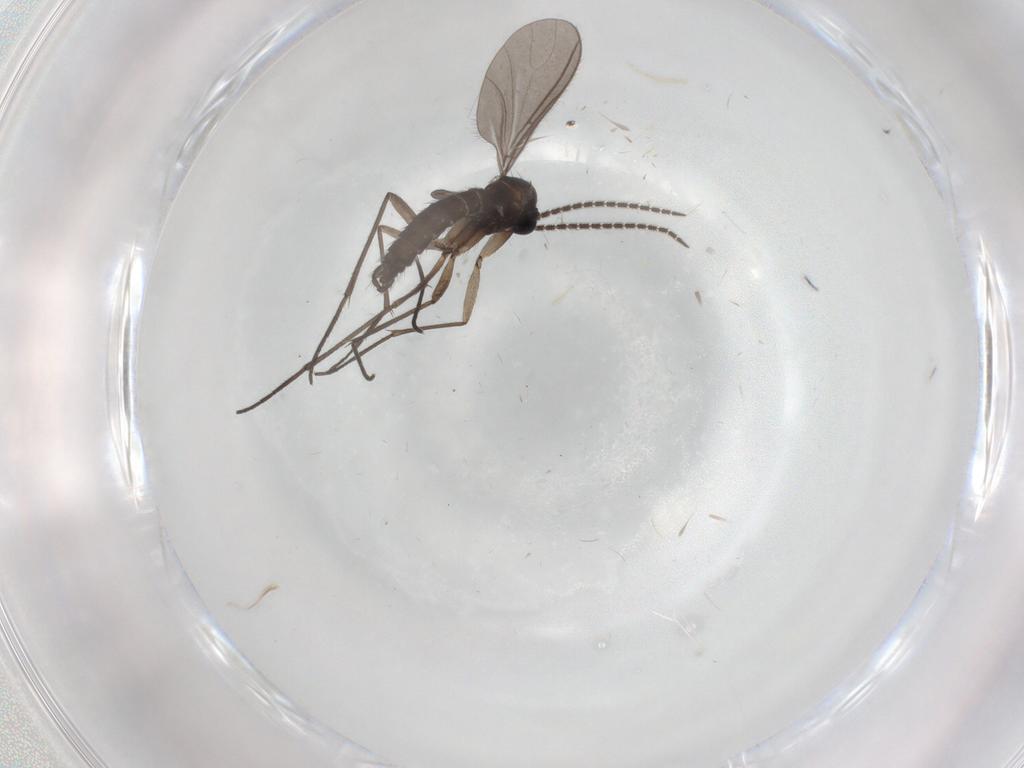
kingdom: Animalia
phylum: Arthropoda
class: Insecta
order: Diptera
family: Sciaridae
